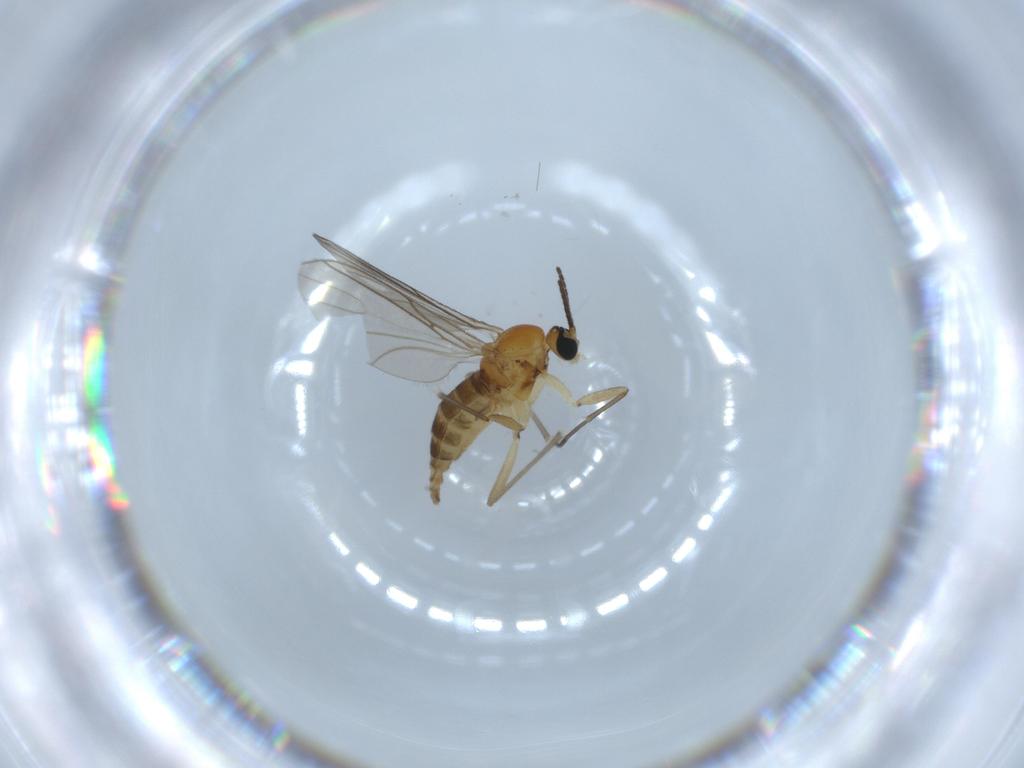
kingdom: Animalia
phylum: Arthropoda
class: Insecta
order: Diptera
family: Cecidomyiidae
